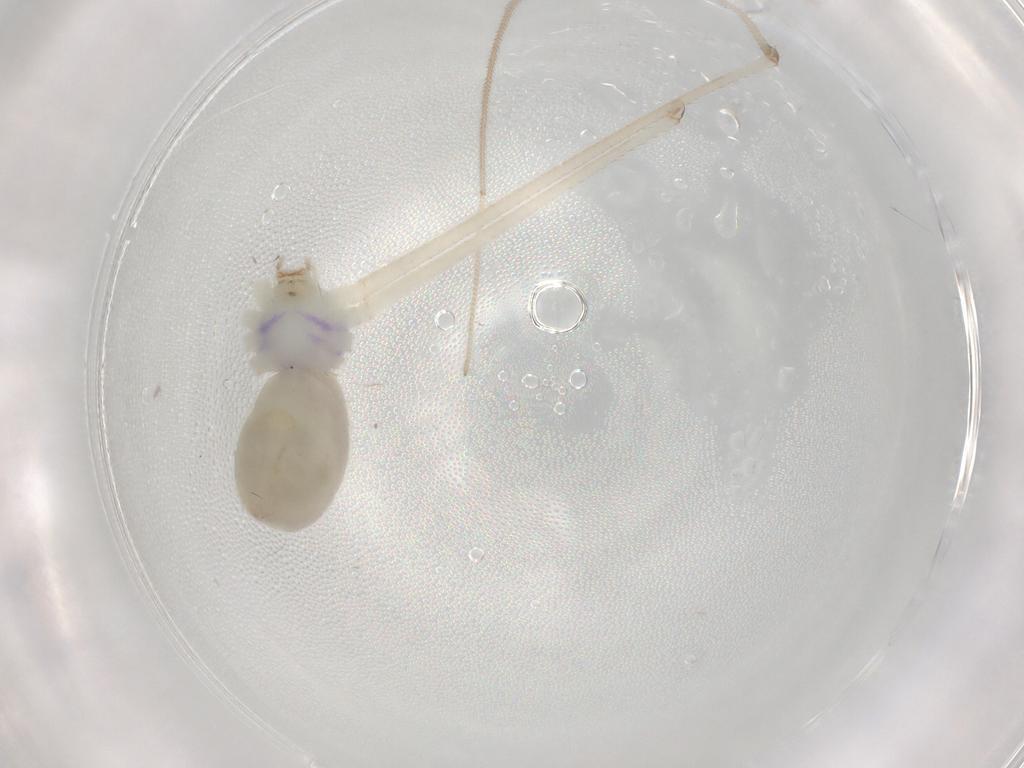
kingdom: Animalia
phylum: Arthropoda
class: Arachnida
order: Araneae
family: Pholcidae
